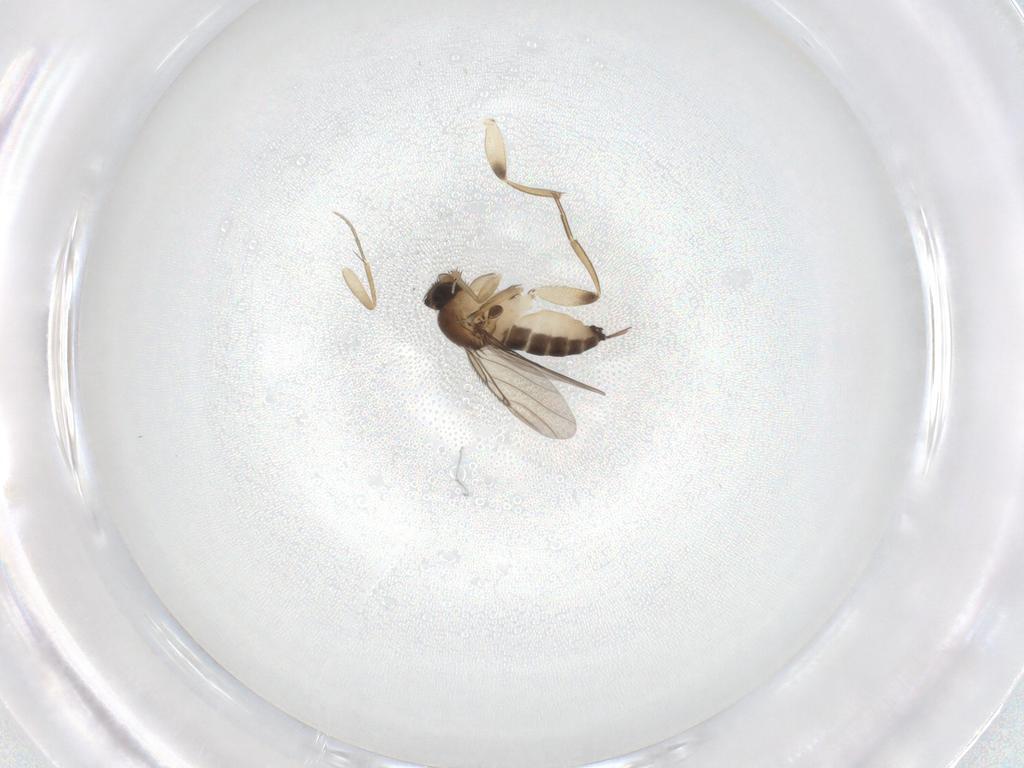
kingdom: Animalia
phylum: Arthropoda
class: Insecta
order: Diptera
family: Phoridae
